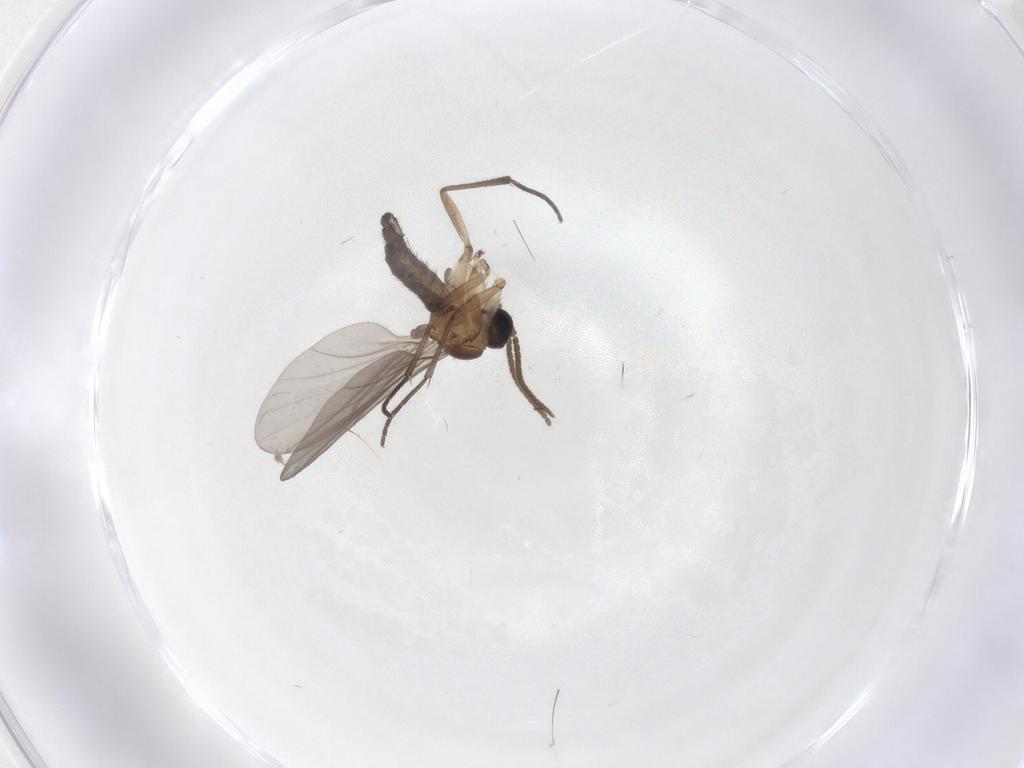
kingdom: Animalia
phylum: Arthropoda
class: Insecta
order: Diptera
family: Sciaridae
